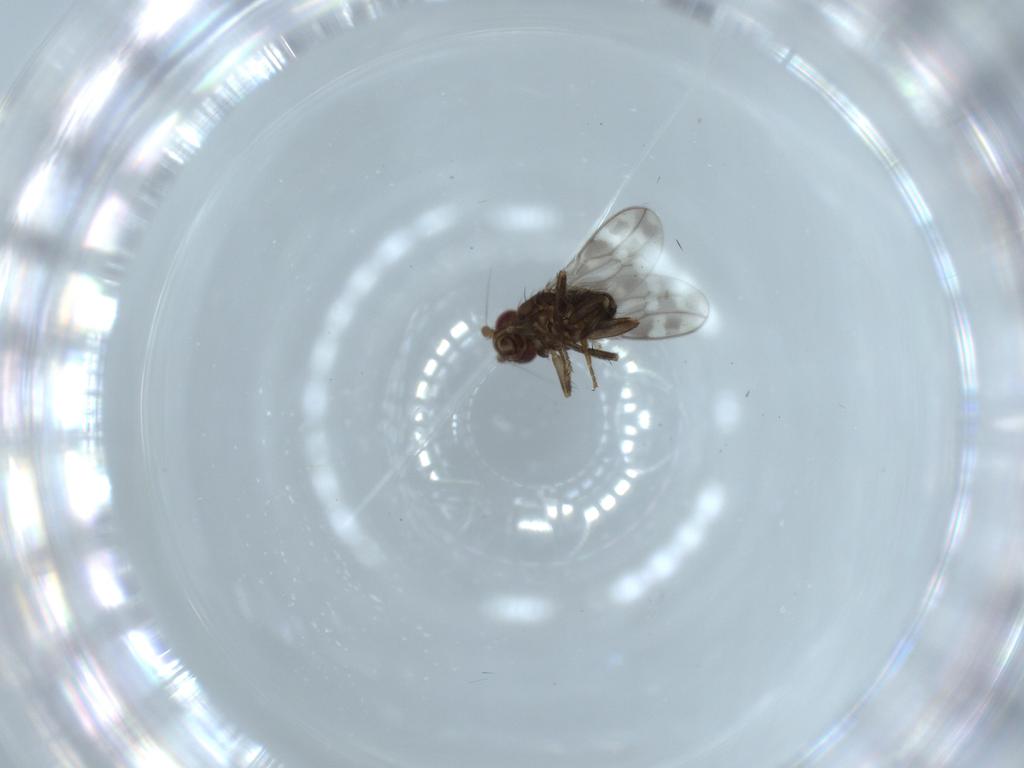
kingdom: Animalia
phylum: Arthropoda
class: Insecta
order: Diptera
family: Sphaeroceridae
